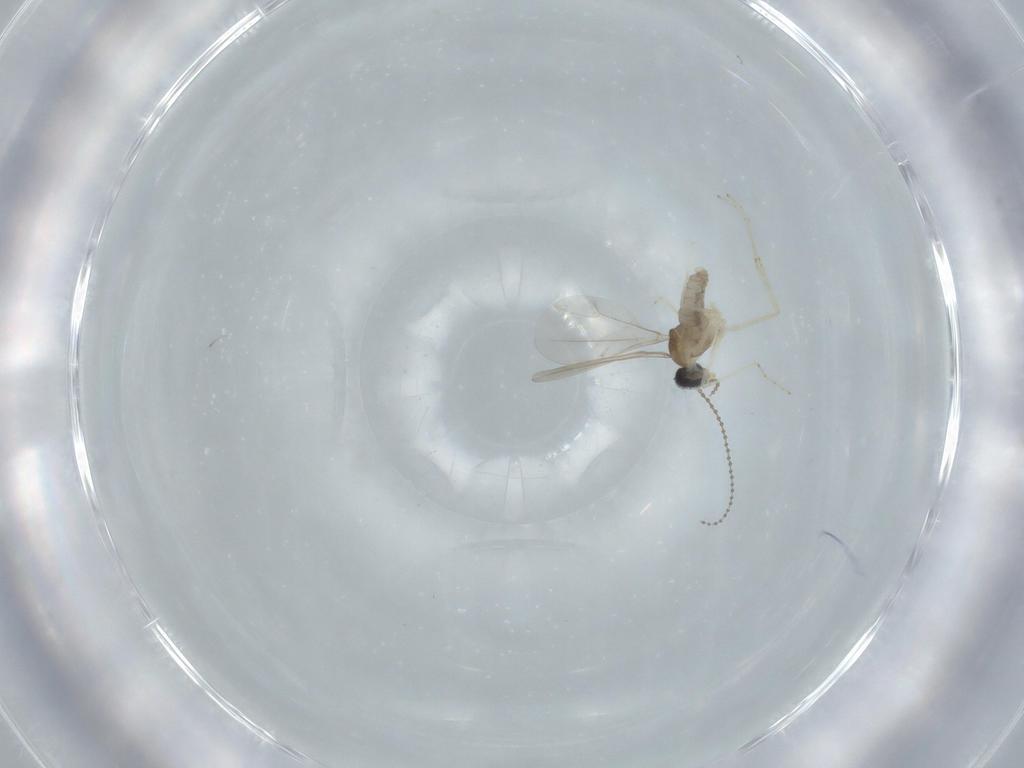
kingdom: Animalia
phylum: Arthropoda
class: Insecta
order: Diptera
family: Cecidomyiidae
